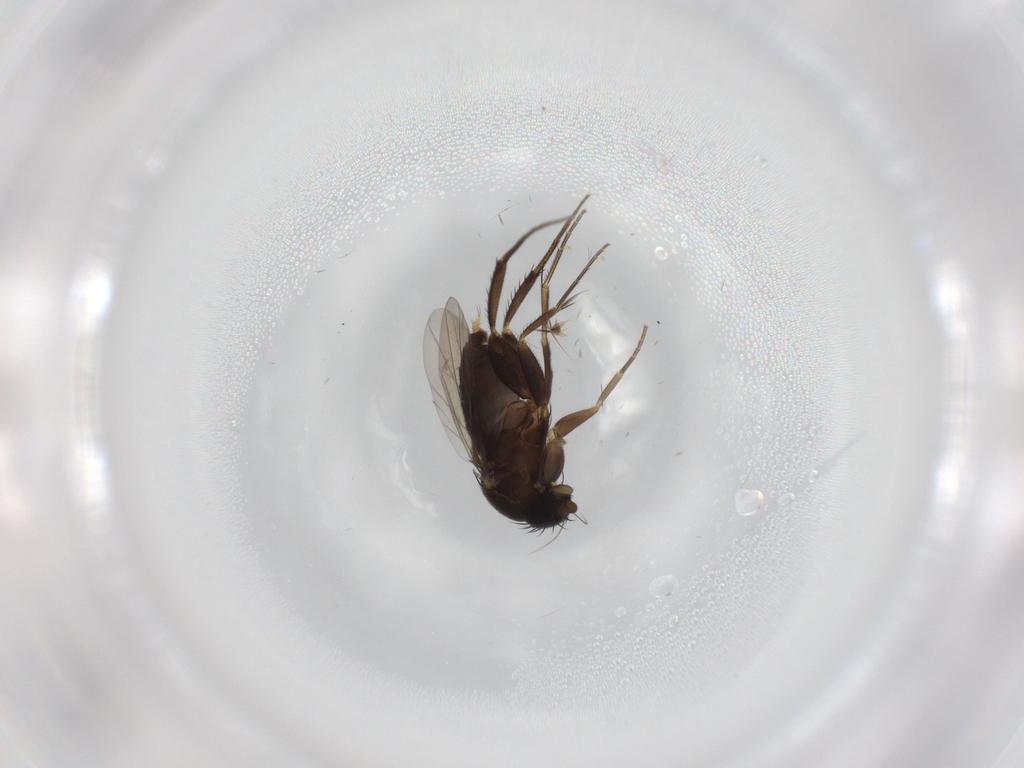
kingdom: Animalia
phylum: Arthropoda
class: Insecta
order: Diptera
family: Phoridae
